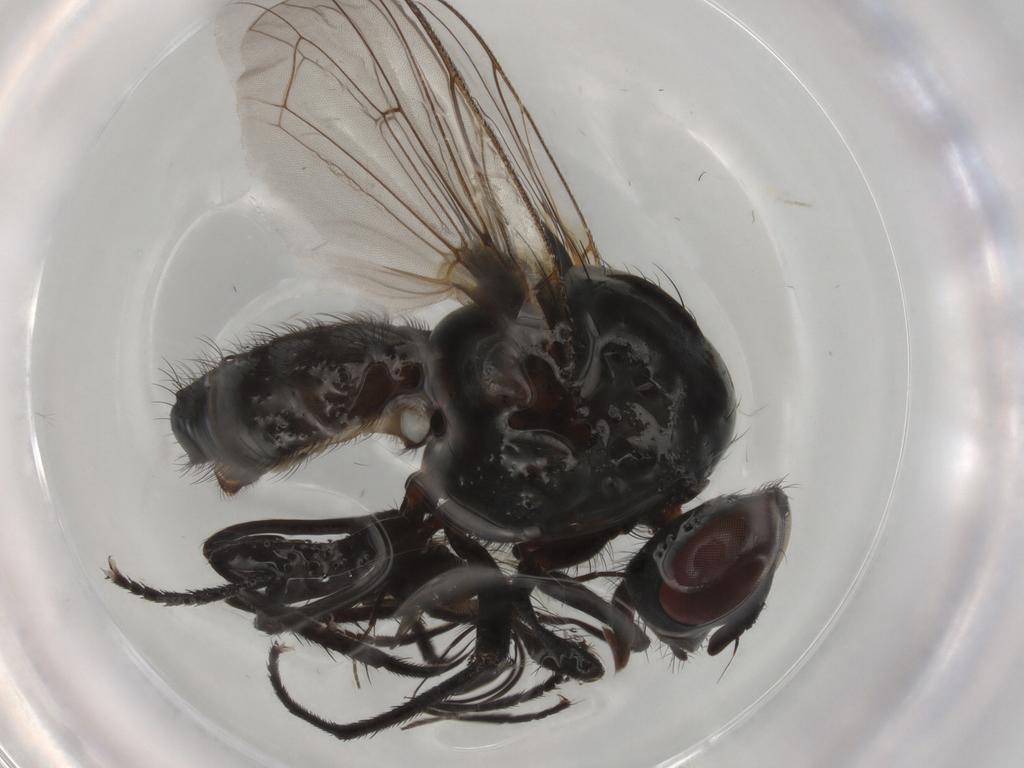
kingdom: Animalia
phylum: Arthropoda
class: Insecta
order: Diptera
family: Anthomyiidae
